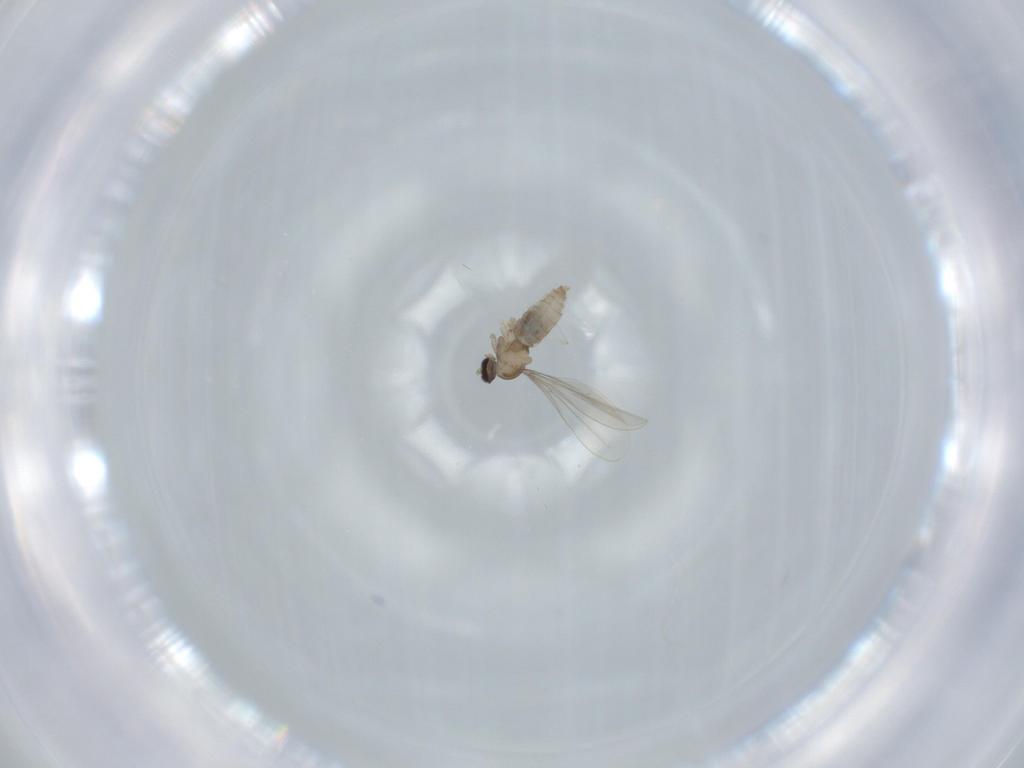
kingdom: Animalia
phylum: Arthropoda
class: Insecta
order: Diptera
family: Cecidomyiidae
